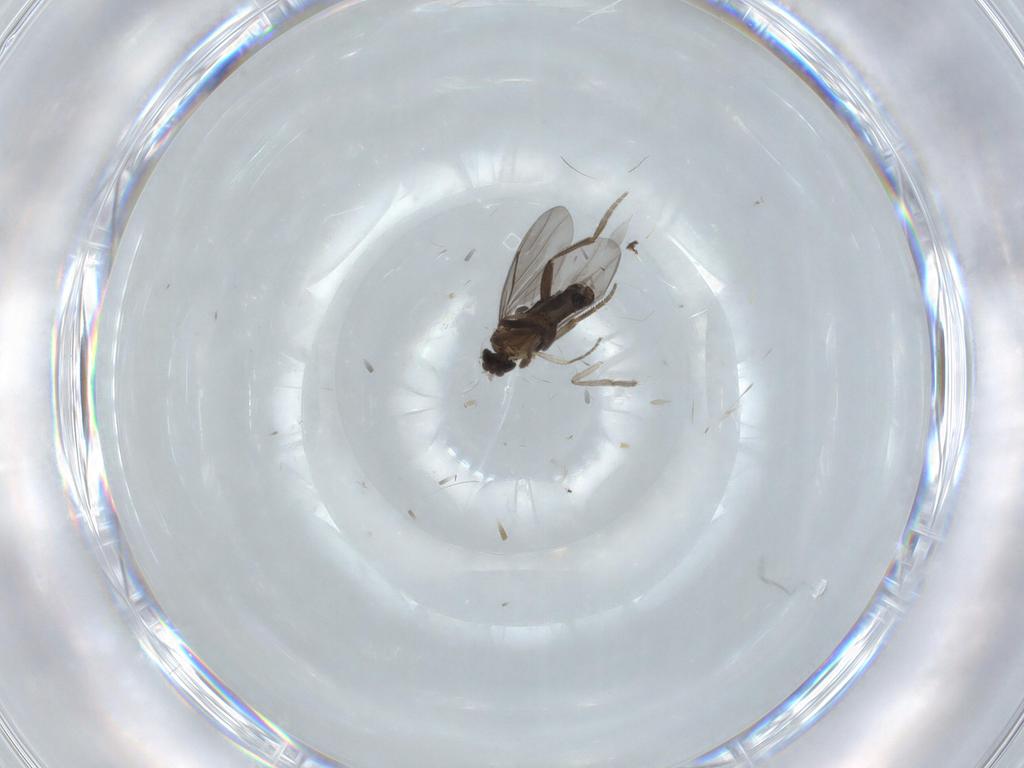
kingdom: Animalia
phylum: Arthropoda
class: Insecta
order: Diptera
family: Phoridae
